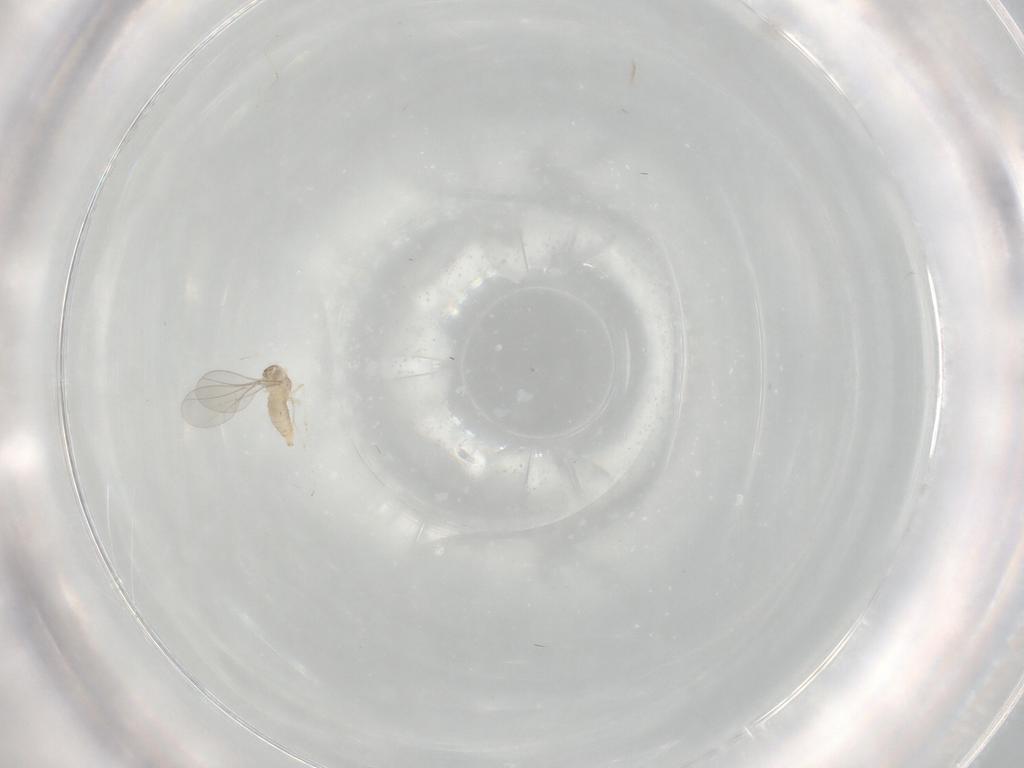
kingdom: Animalia
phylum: Arthropoda
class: Insecta
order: Diptera
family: Cecidomyiidae
